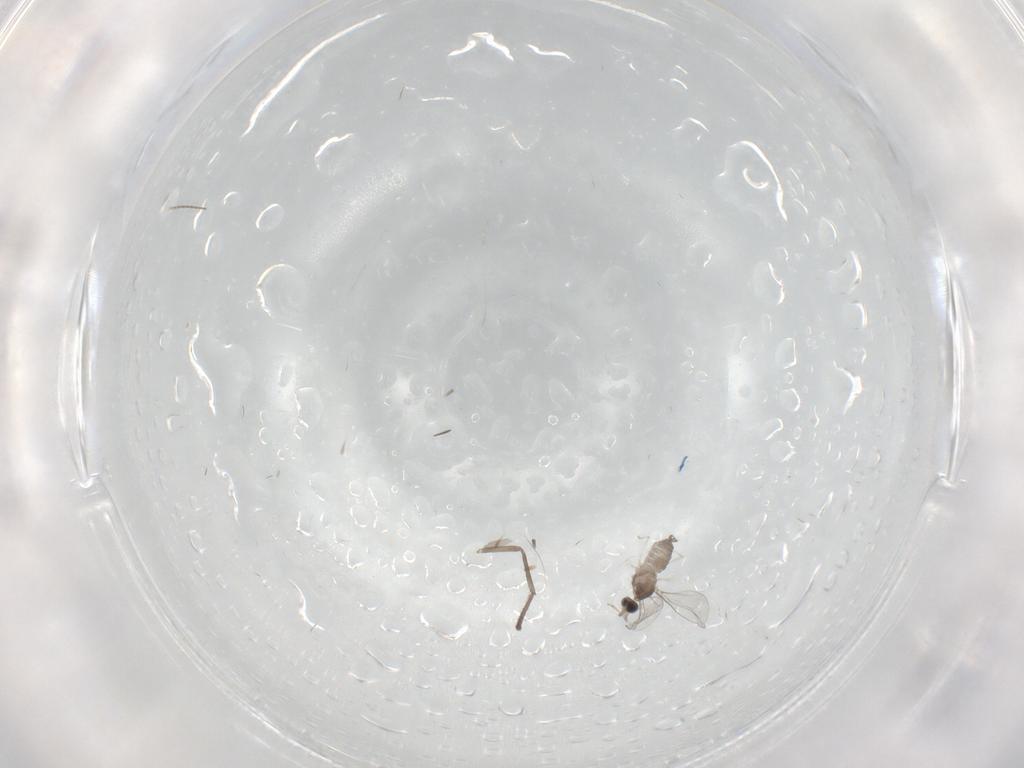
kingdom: Animalia
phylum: Arthropoda
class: Insecta
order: Diptera
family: Cecidomyiidae
